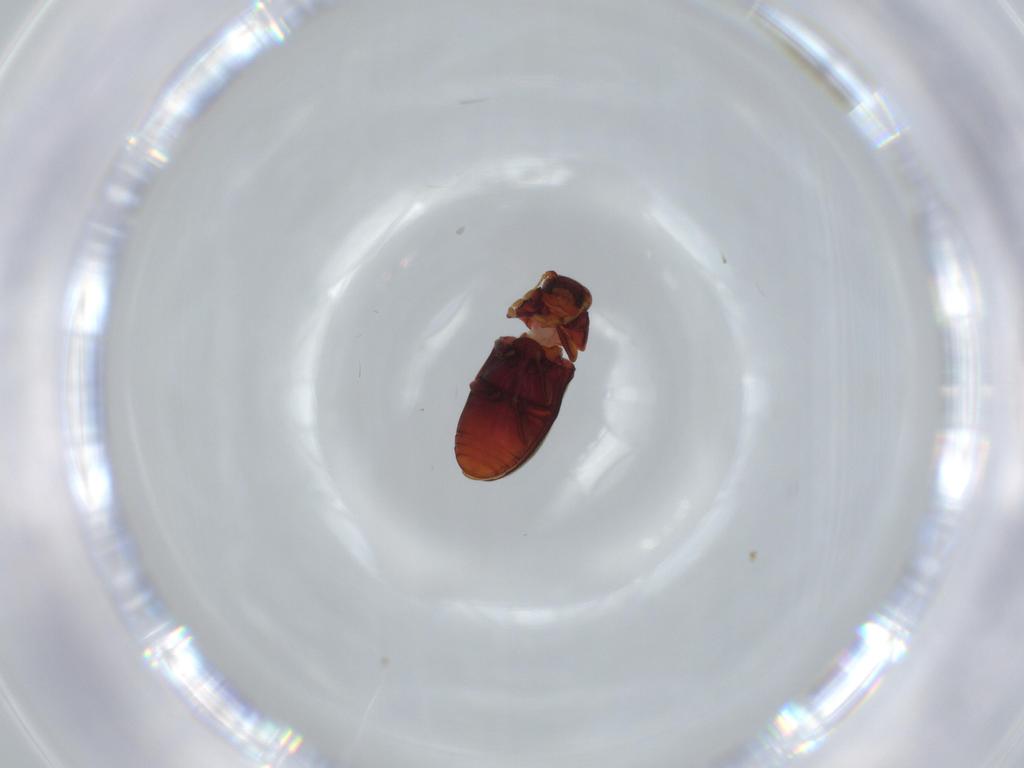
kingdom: Animalia
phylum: Arthropoda
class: Insecta
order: Coleoptera
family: Ptinidae
